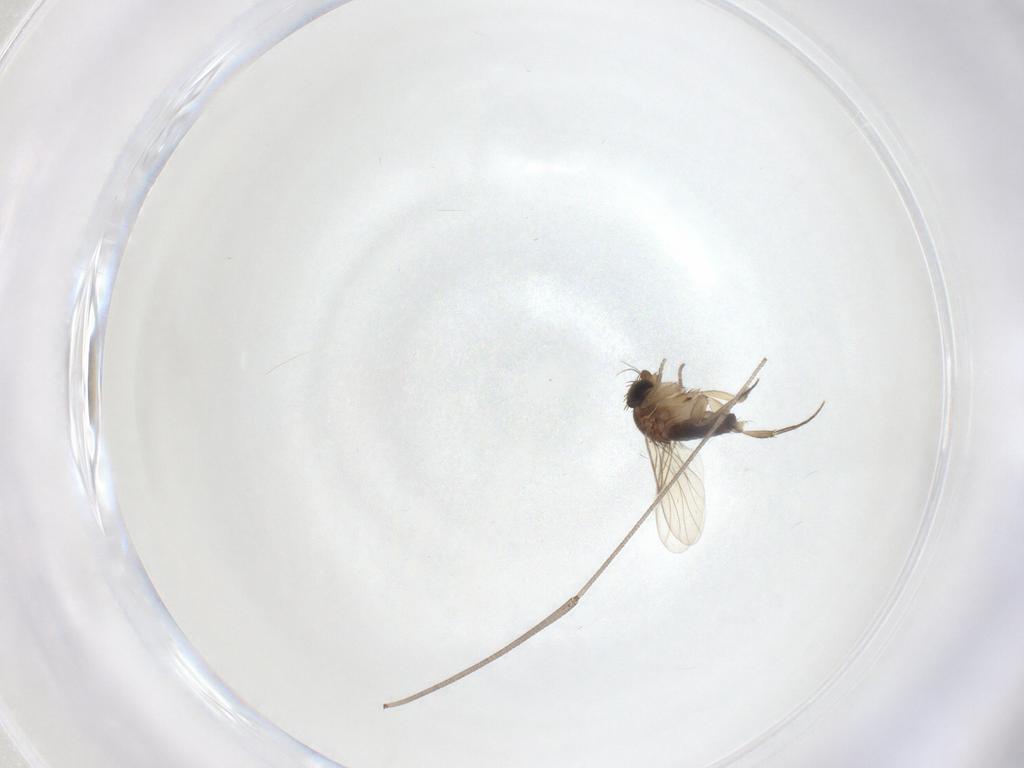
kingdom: Animalia
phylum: Arthropoda
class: Insecta
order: Diptera
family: Phoridae
